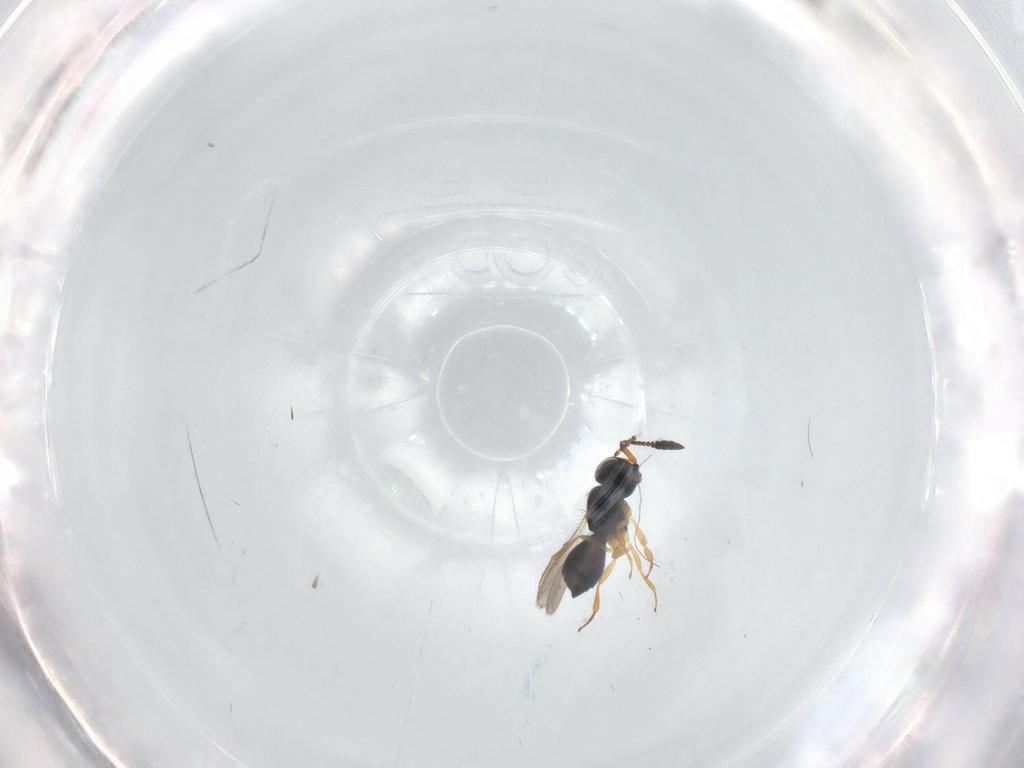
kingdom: Animalia
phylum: Arthropoda
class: Insecta
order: Hymenoptera
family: Scelionidae
